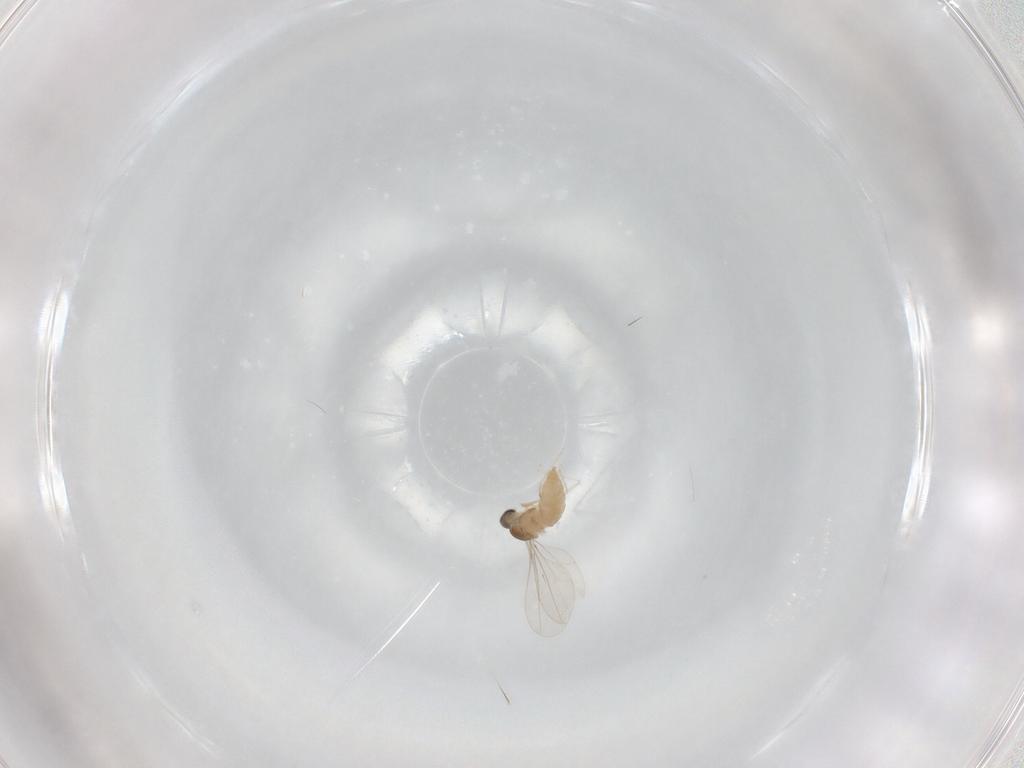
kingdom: Animalia
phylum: Arthropoda
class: Insecta
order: Diptera
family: Cecidomyiidae
